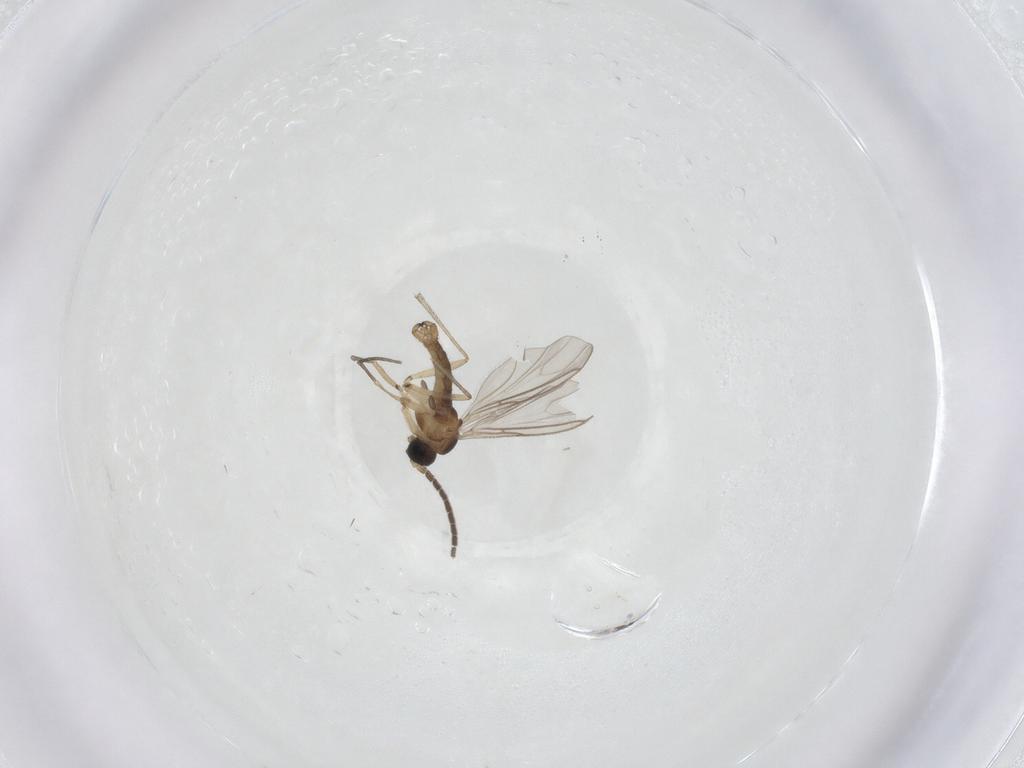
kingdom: Animalia
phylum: Arthropoda
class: Insecta
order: Diptera
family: Sciaridae
